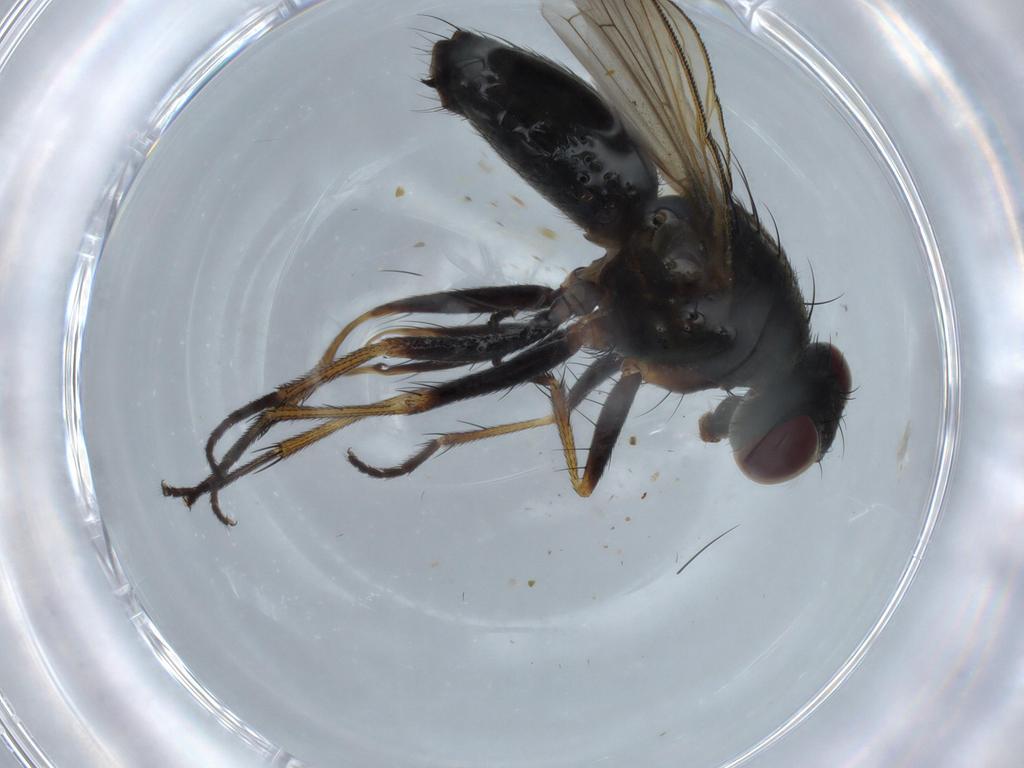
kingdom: Animalia
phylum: Arthropoda
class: Insecta
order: Diptera
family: Muscidae
